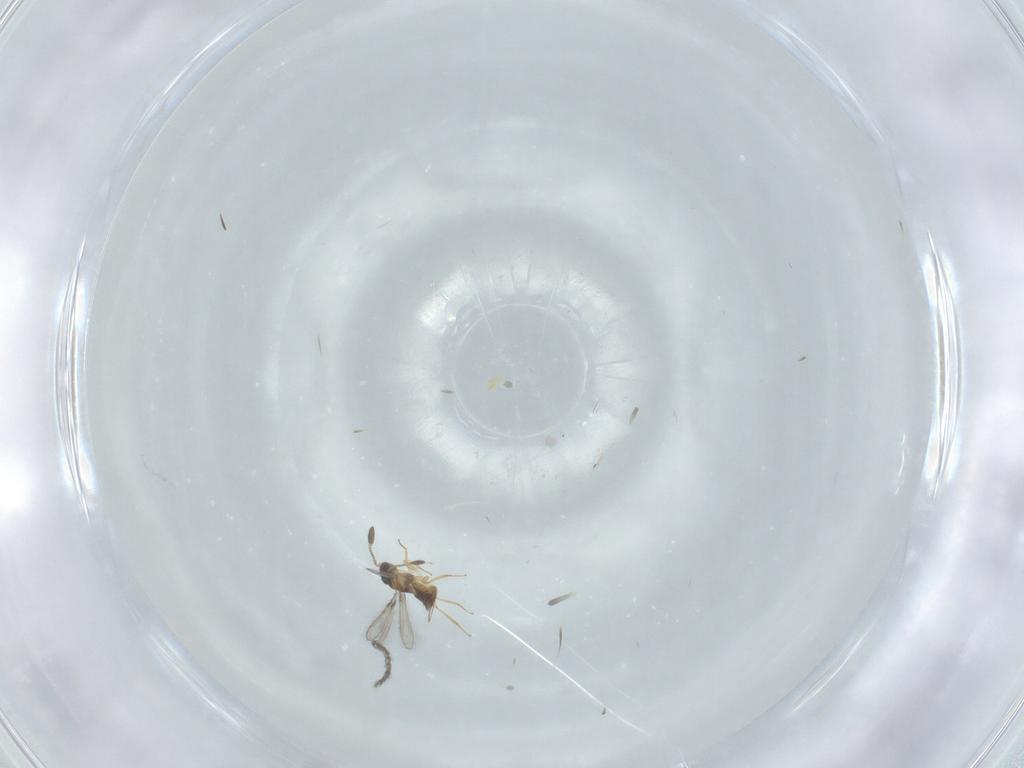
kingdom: Animalia
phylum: Arthropoda
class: Insecta
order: Hymenoptera
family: Mymaridae
